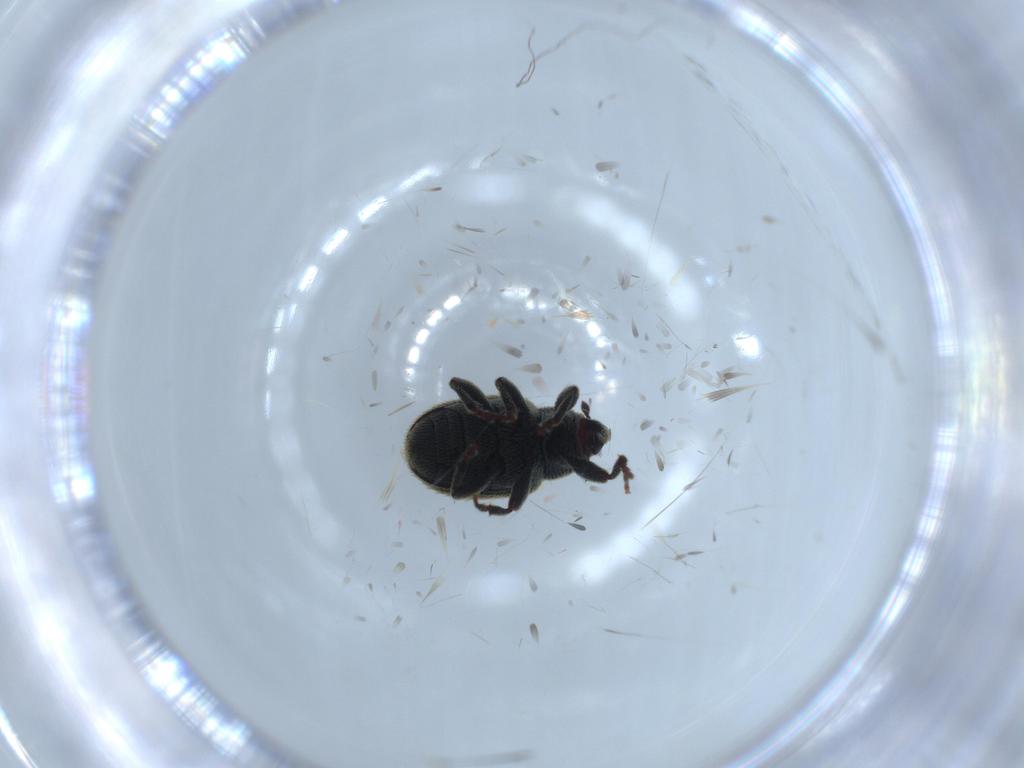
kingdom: Animalia
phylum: Arthropoda
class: Insecta
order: Coleoptera
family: Curculionidae
